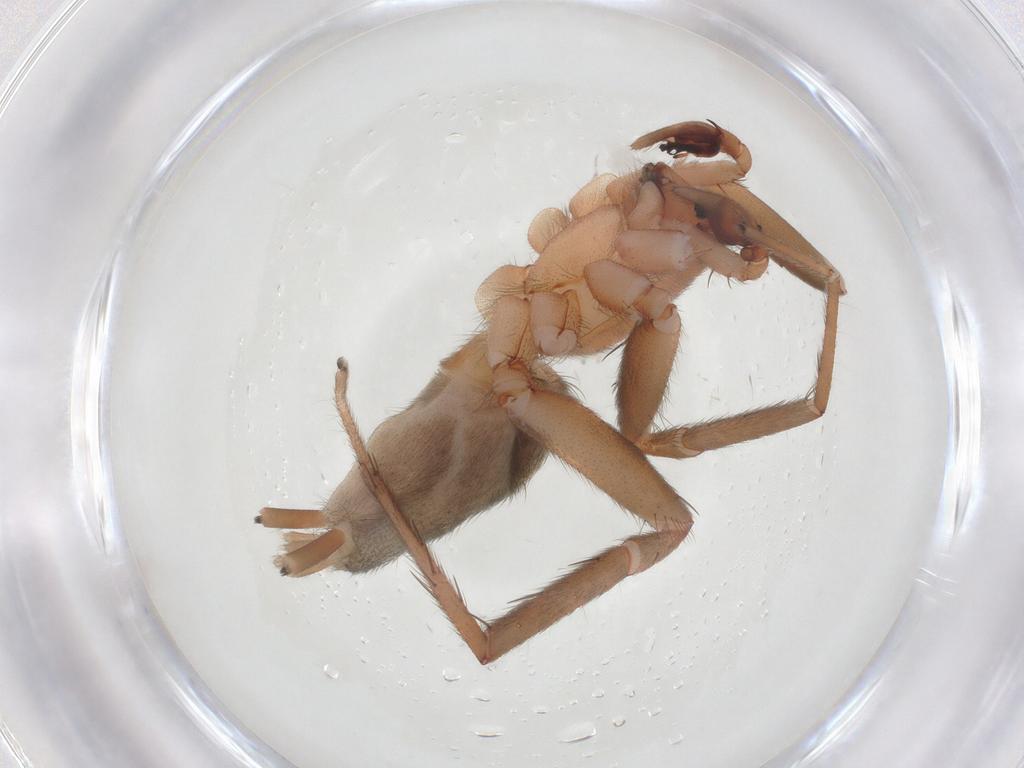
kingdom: Animalia
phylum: Arthropoda
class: Arachnida
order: Araneae
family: Gnaphosidae
